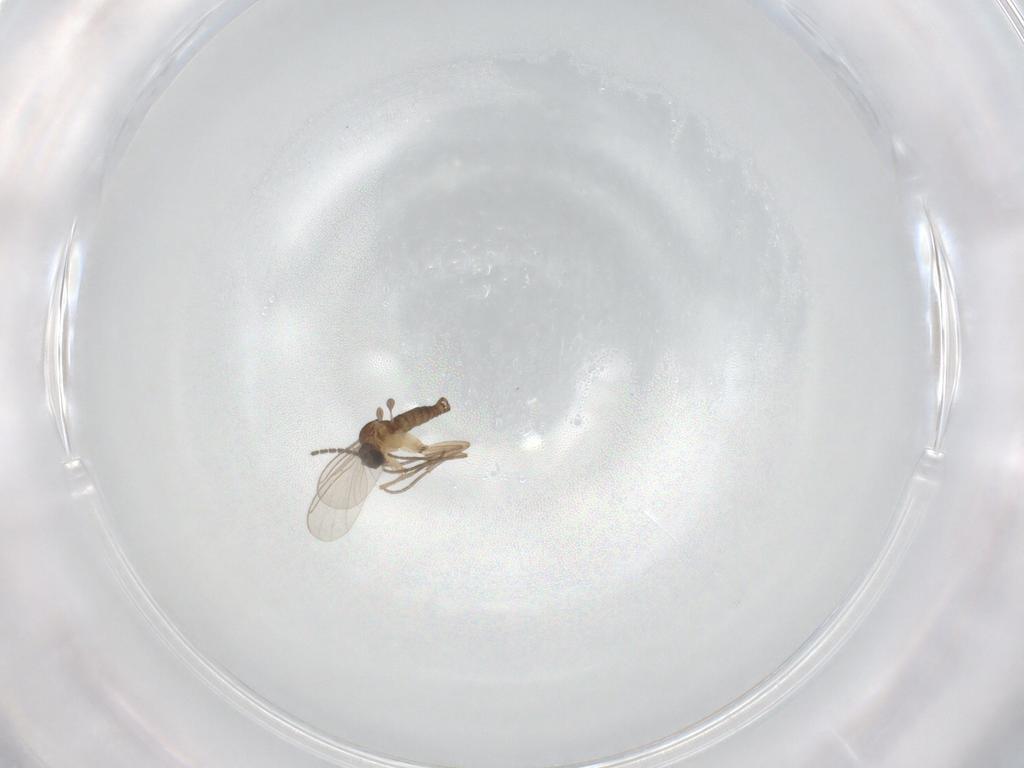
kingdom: Animalia
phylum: Arthropoda
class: Insecta
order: Diptera
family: Sciaridae
